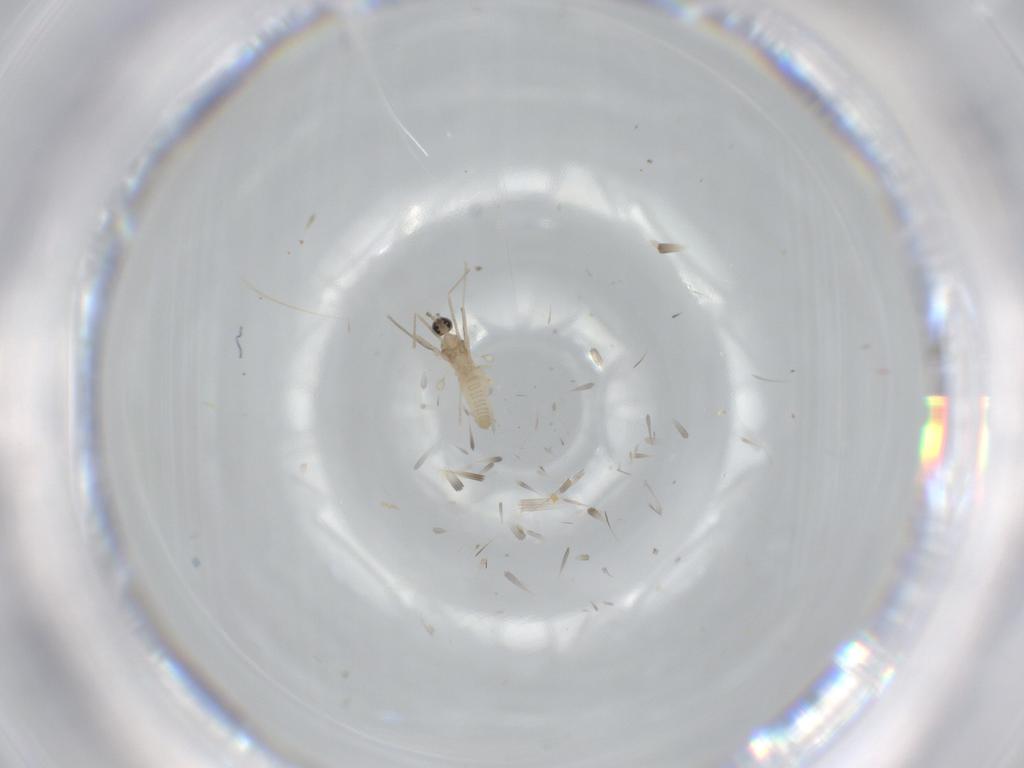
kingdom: Animalia
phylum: Arthropoda
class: Insecta
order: Diptera
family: Cecidomyiidae
